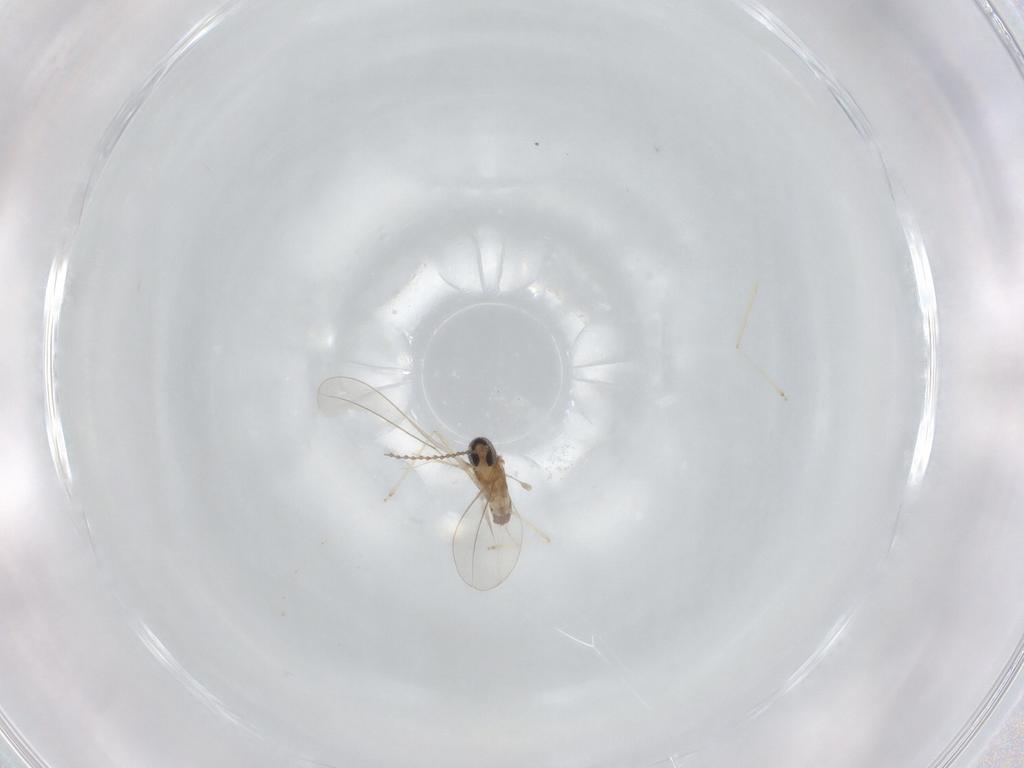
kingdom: Animalia
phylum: Arthropoda
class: Insecta
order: Diptera
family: Cecidomyiidae
